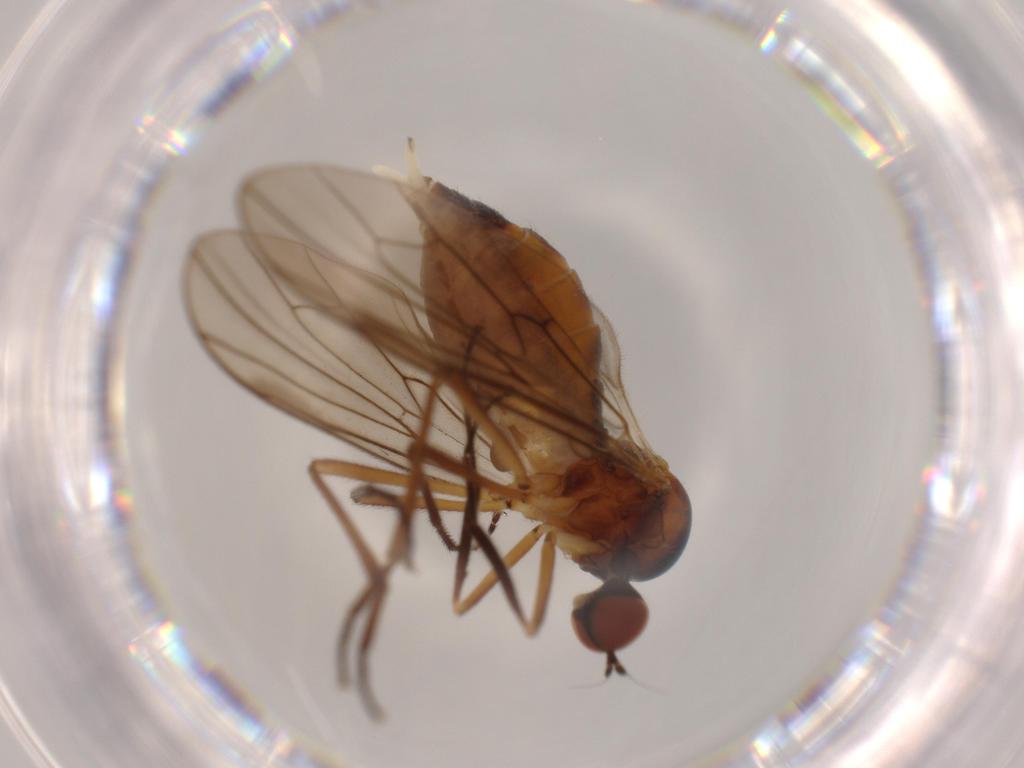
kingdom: Animalia
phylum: Arthropoda
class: Insecta
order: Diptera
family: Cecidomyiidae
